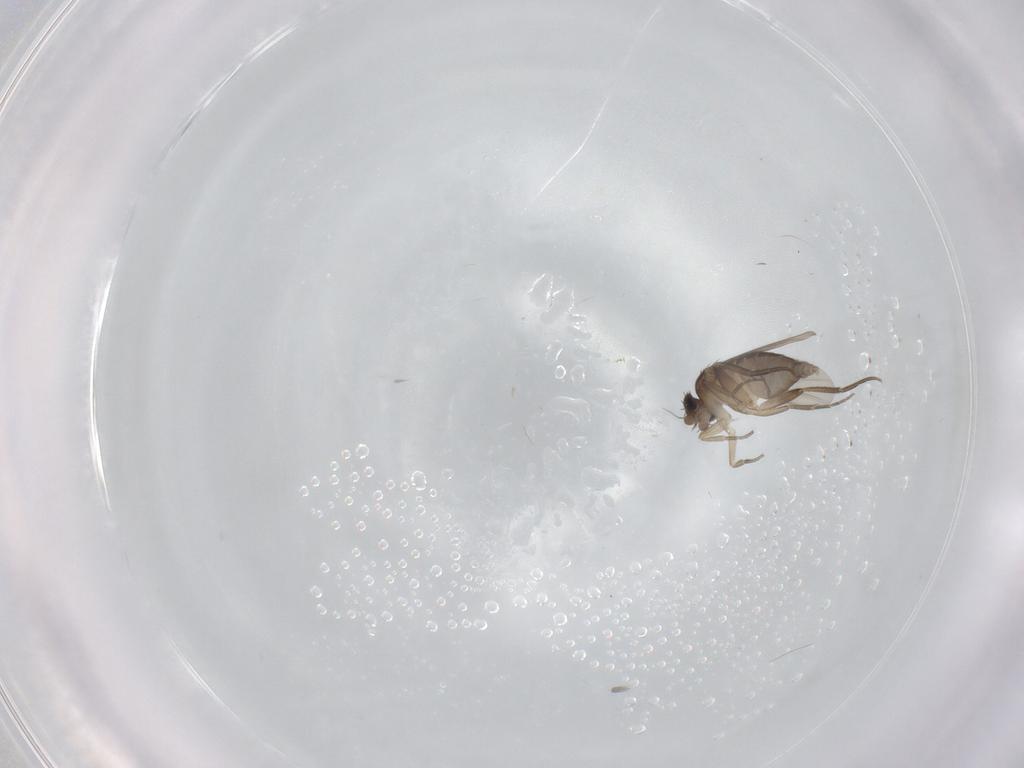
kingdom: Animalia
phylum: Arthropoda
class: Insecta
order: Diptera
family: Phoridae
